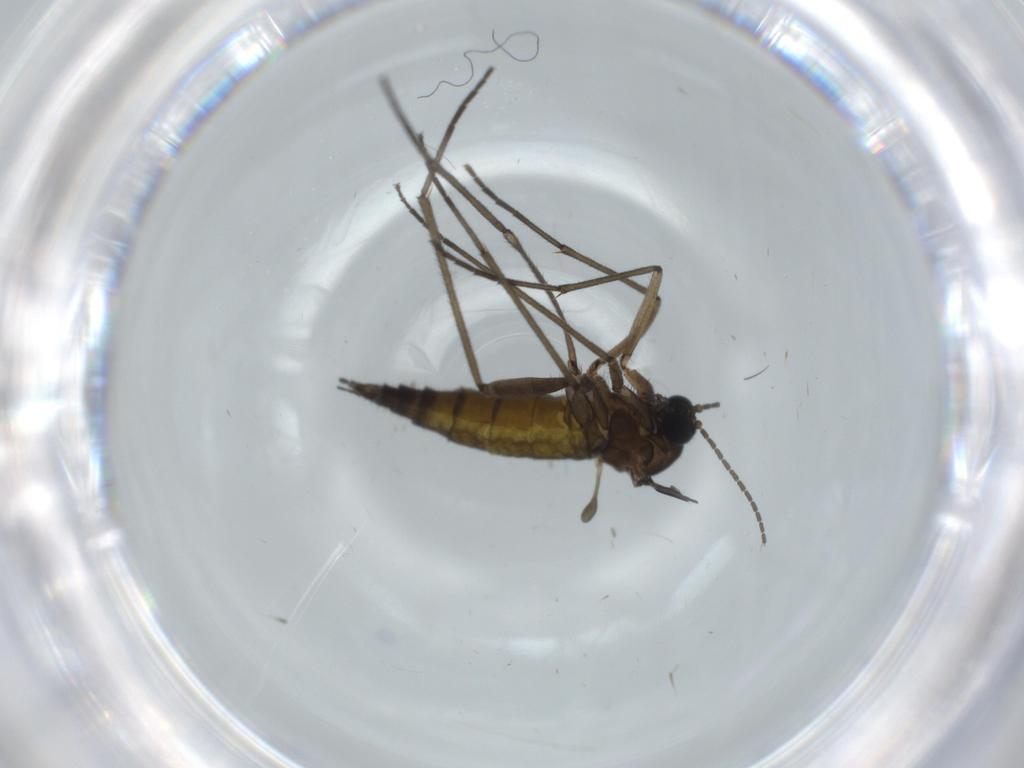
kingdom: Animalia
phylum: Arthropoda
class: Insecta
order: Diptera
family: Sciaridae
